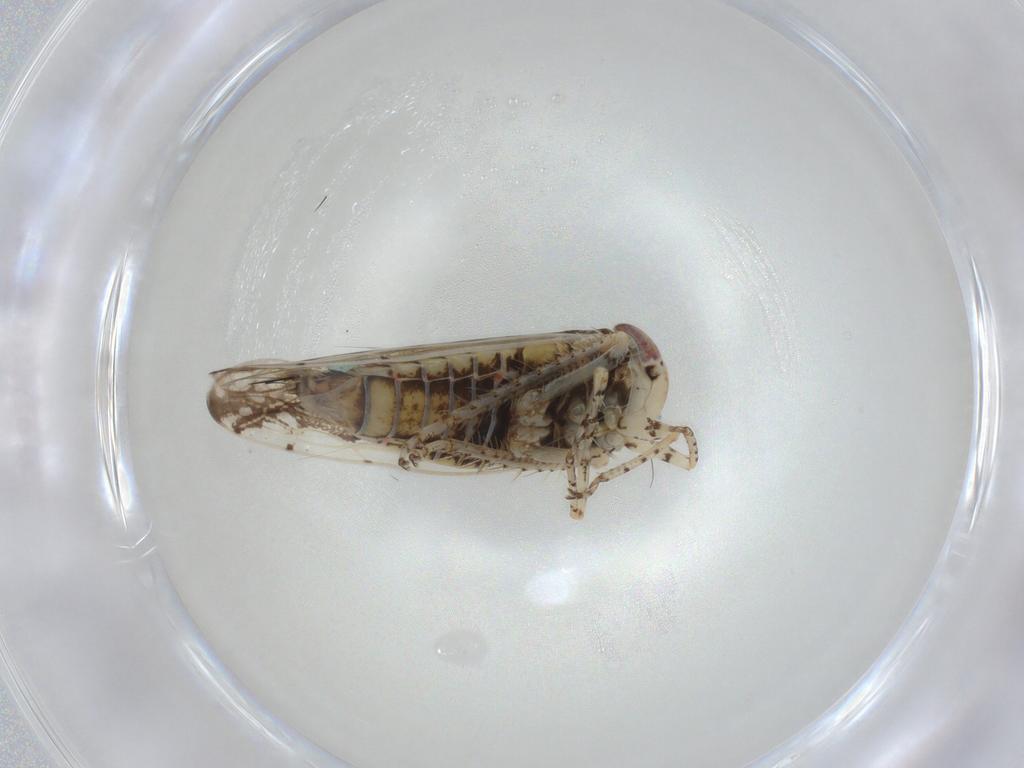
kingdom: Animalia
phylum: Arthropoda
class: Insecta
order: Hemiptera
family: Cicadellidae
